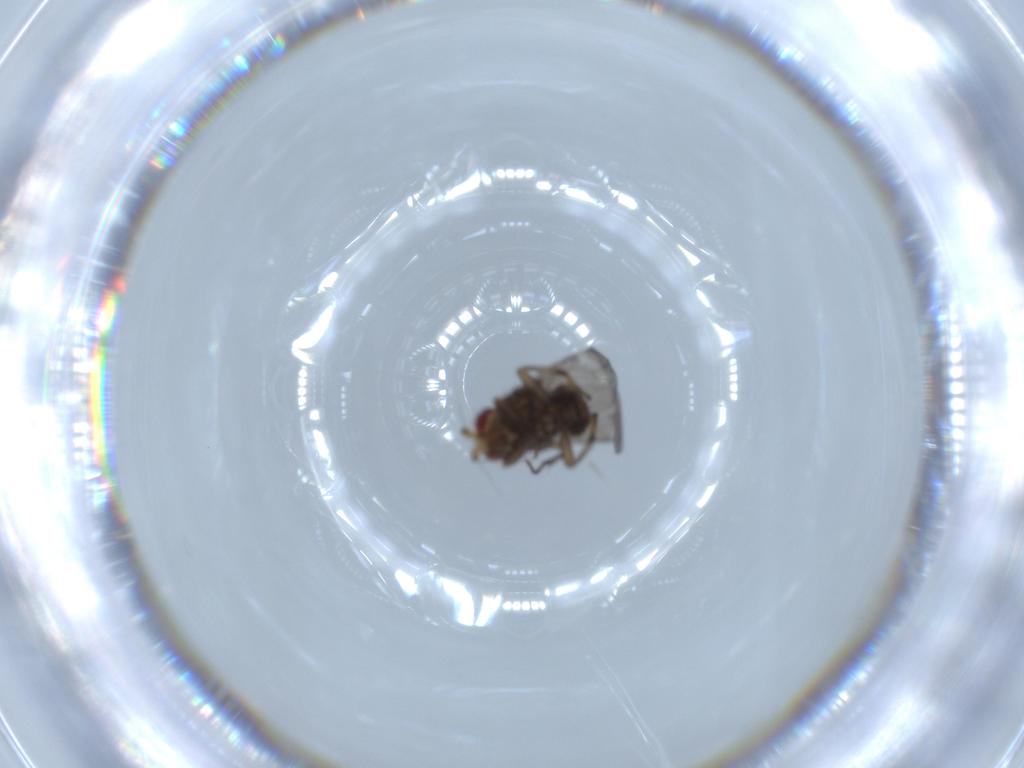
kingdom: Animalia
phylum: Arthropoda
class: Insecta
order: Diptera
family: Sphaeroceridae
